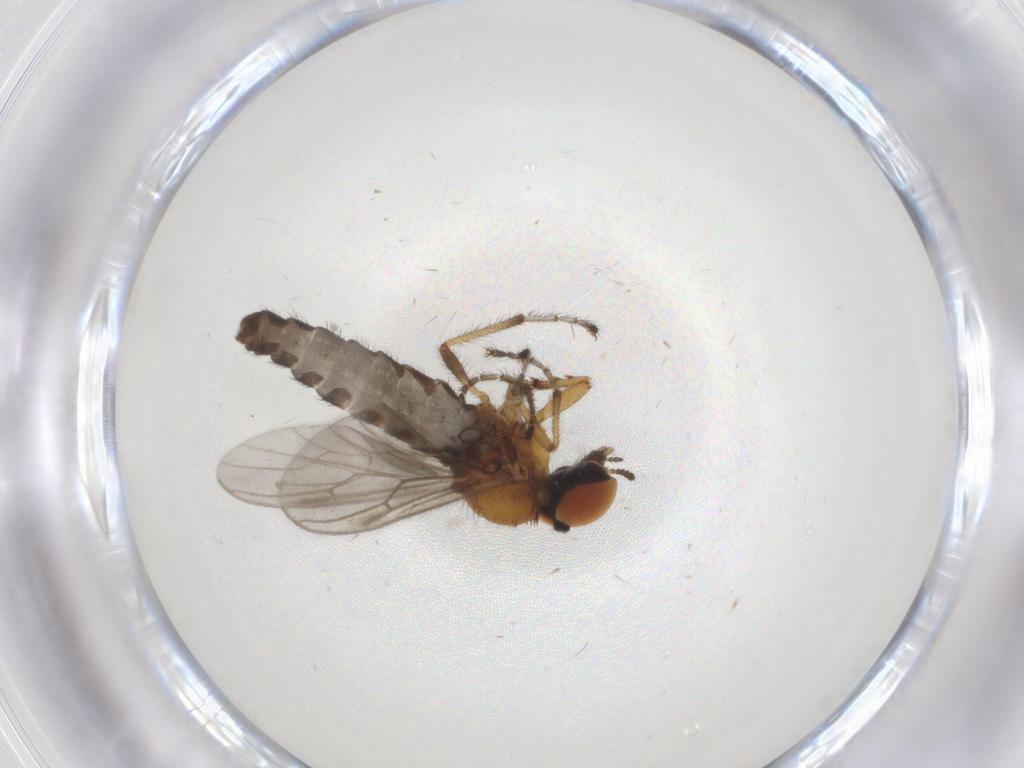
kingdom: Animalia
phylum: Arthropoda
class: Insecta
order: Diptera
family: Bibionidae
